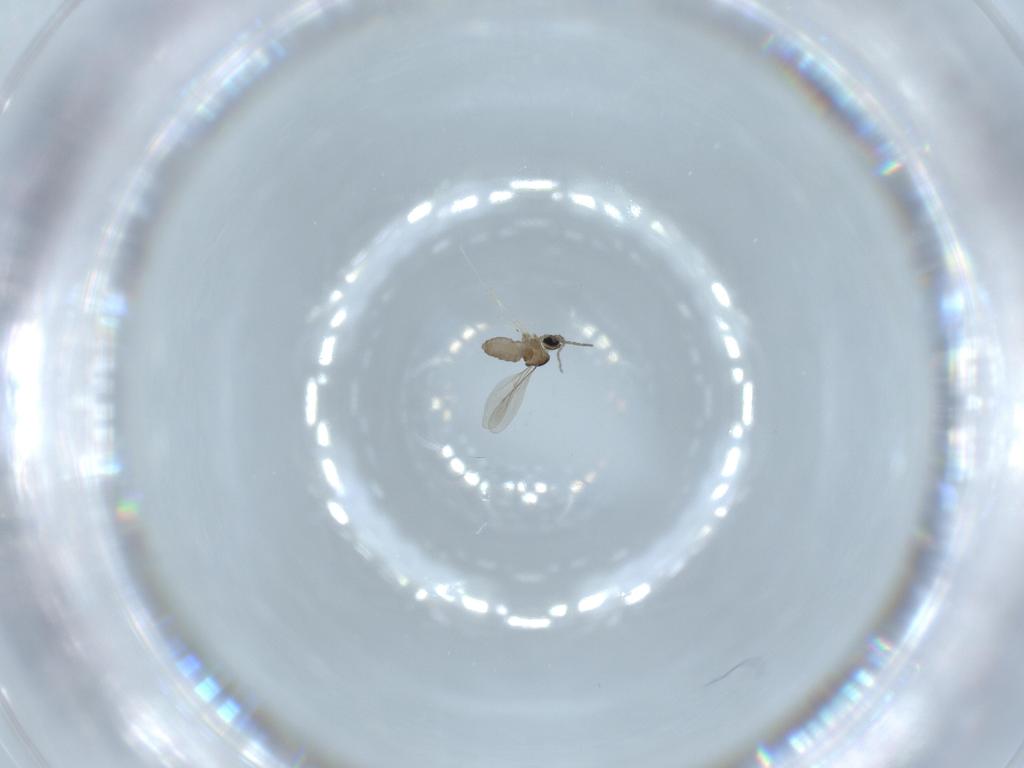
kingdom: Animalia
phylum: Arthropoda
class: Insecta
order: Diptera
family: Cecidomyiidae
